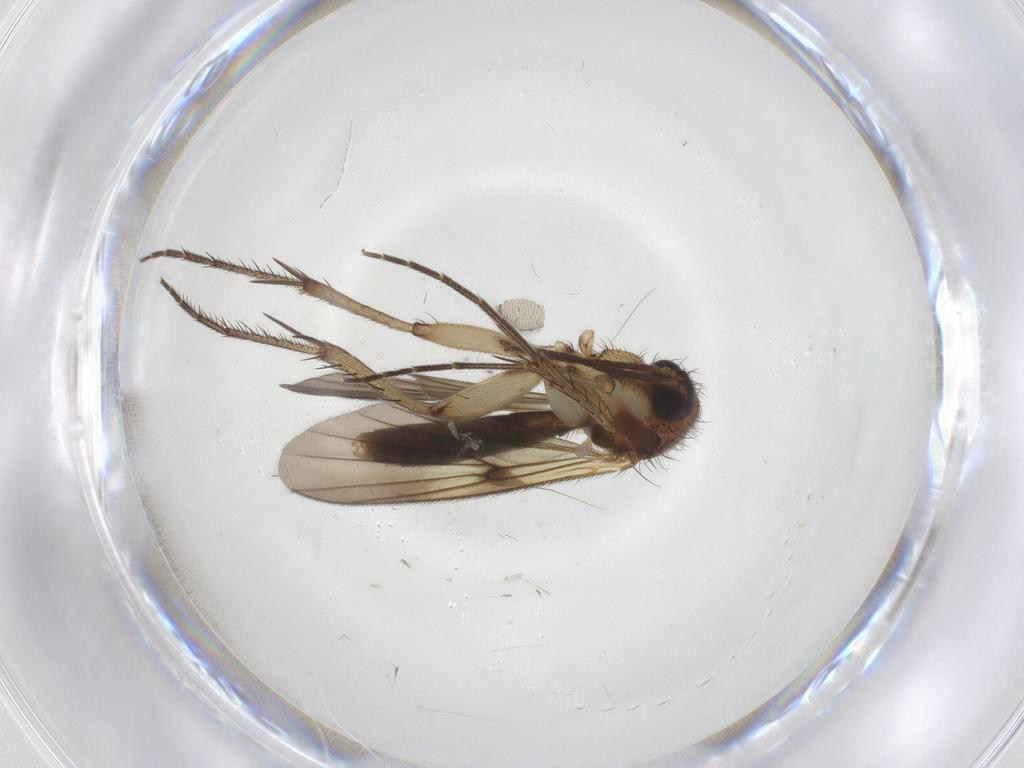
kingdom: Animalia
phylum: Arthropoda
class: Insecta
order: Diptera
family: Mycetophilidae
